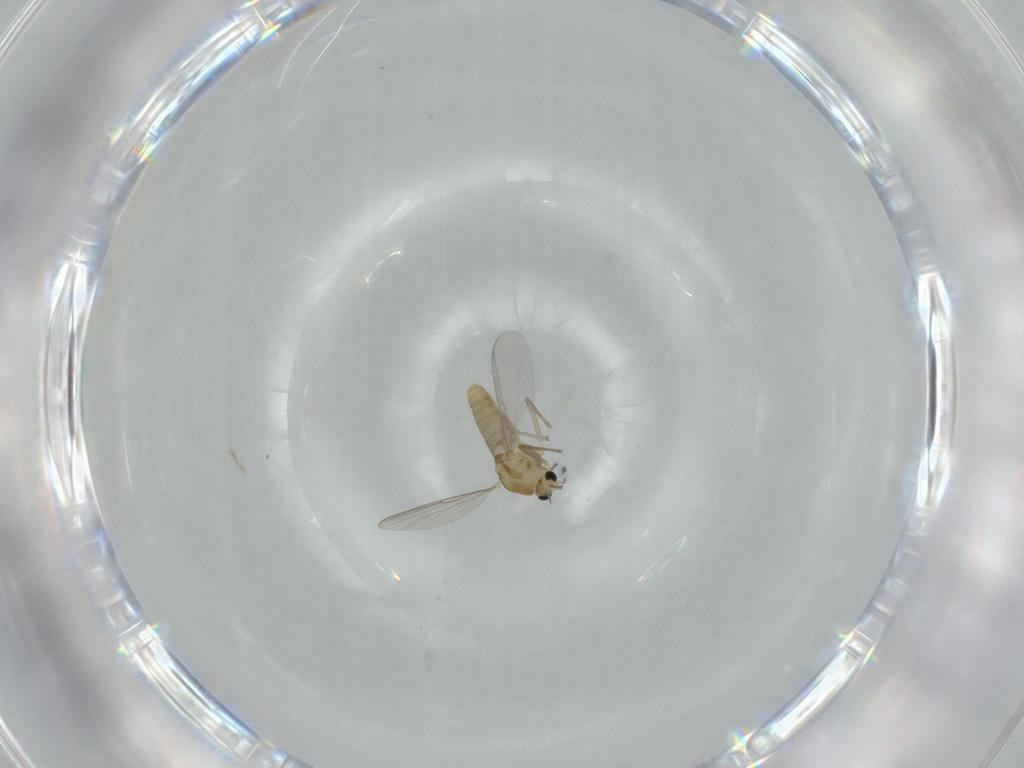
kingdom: Animalia
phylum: Arthropoda
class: Insecta
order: Diptera
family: Chironomidae
